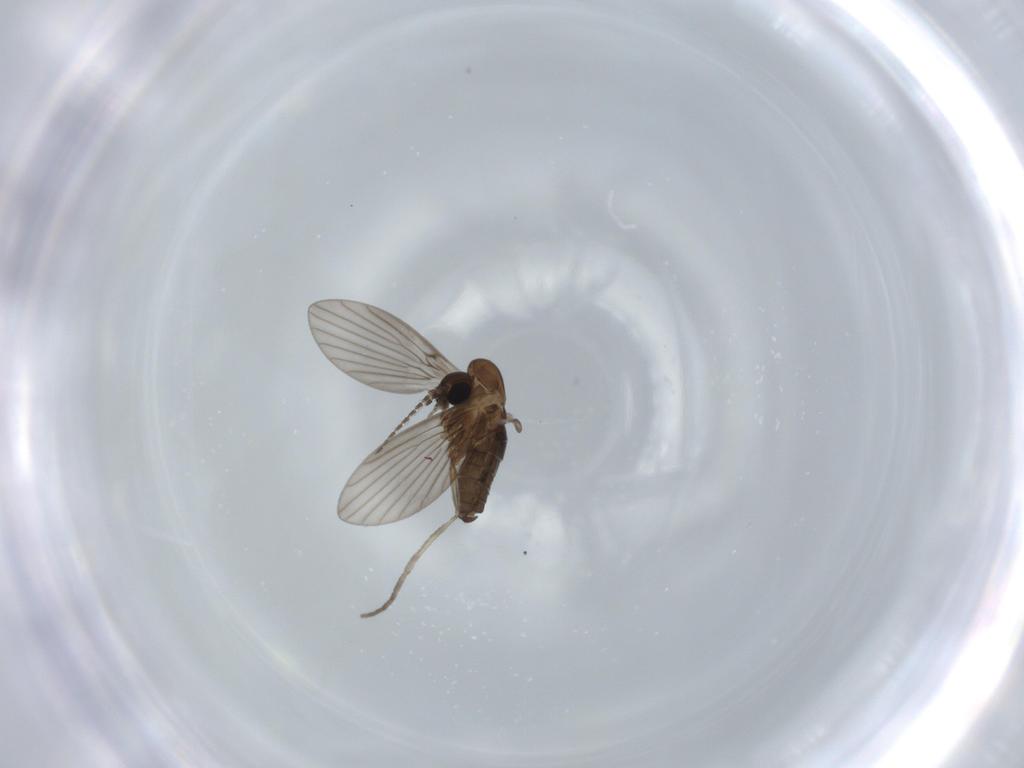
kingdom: Animalia
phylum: Arthropoda
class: Insecta
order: Diptera
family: Psychodidae
